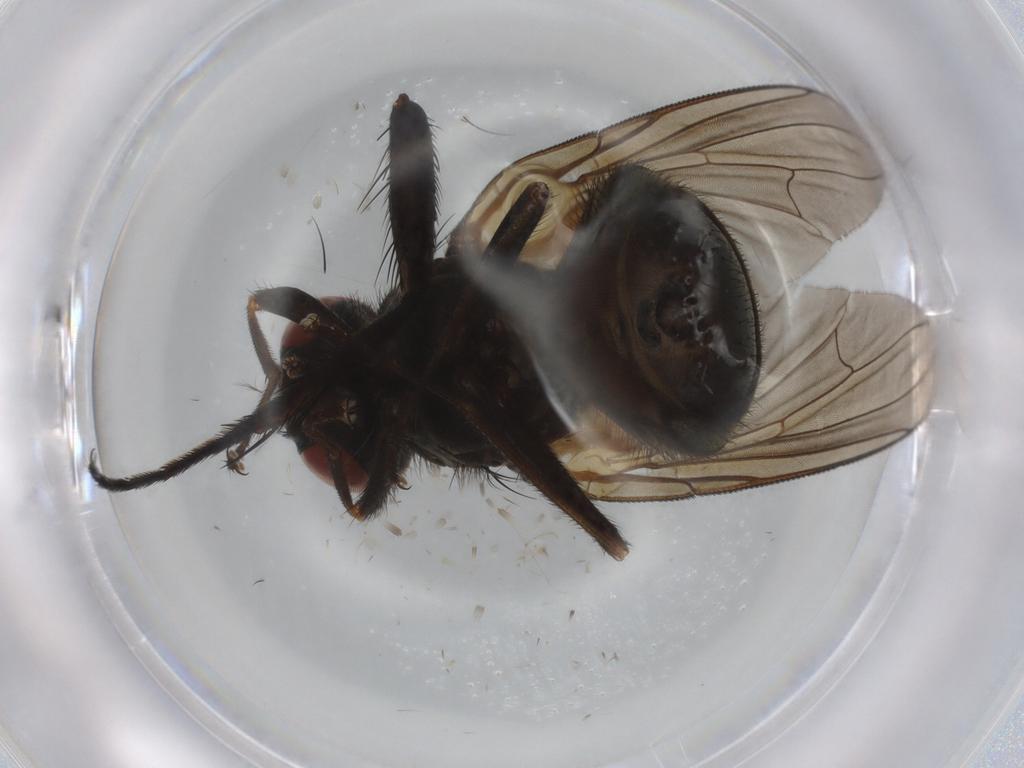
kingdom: Animalia
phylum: Arthropoda
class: Insecta
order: Diptera
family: Muscidae
